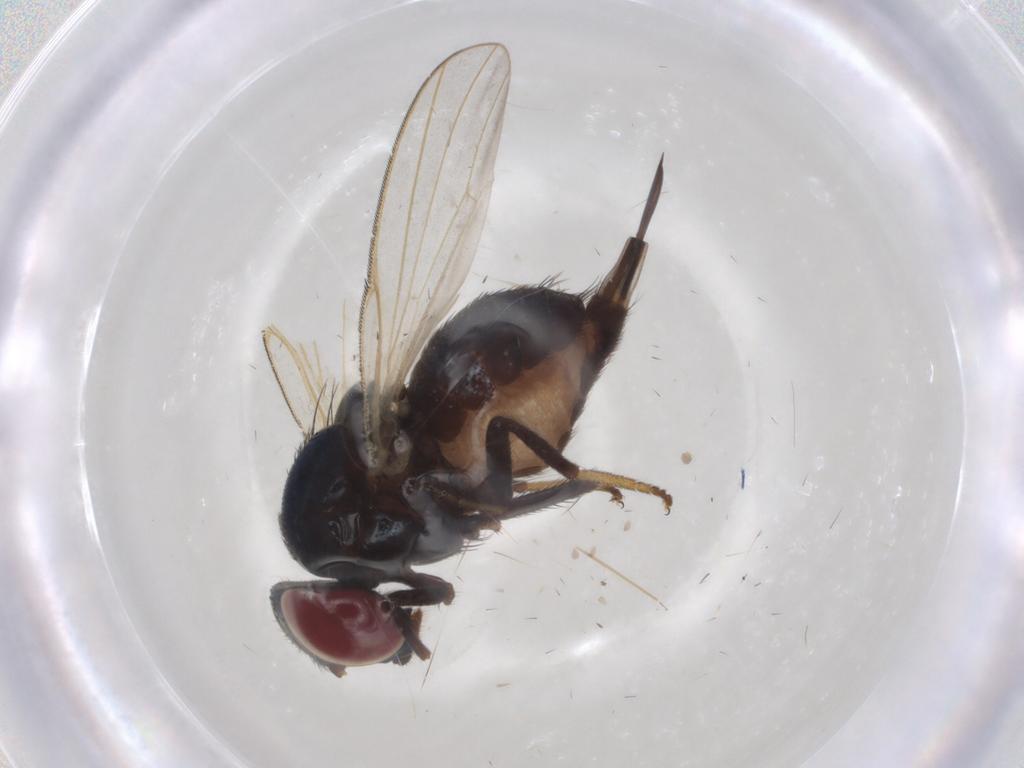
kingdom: Animalia
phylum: Arthropoda
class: Insecta
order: Diptera
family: Lonchaeidae
